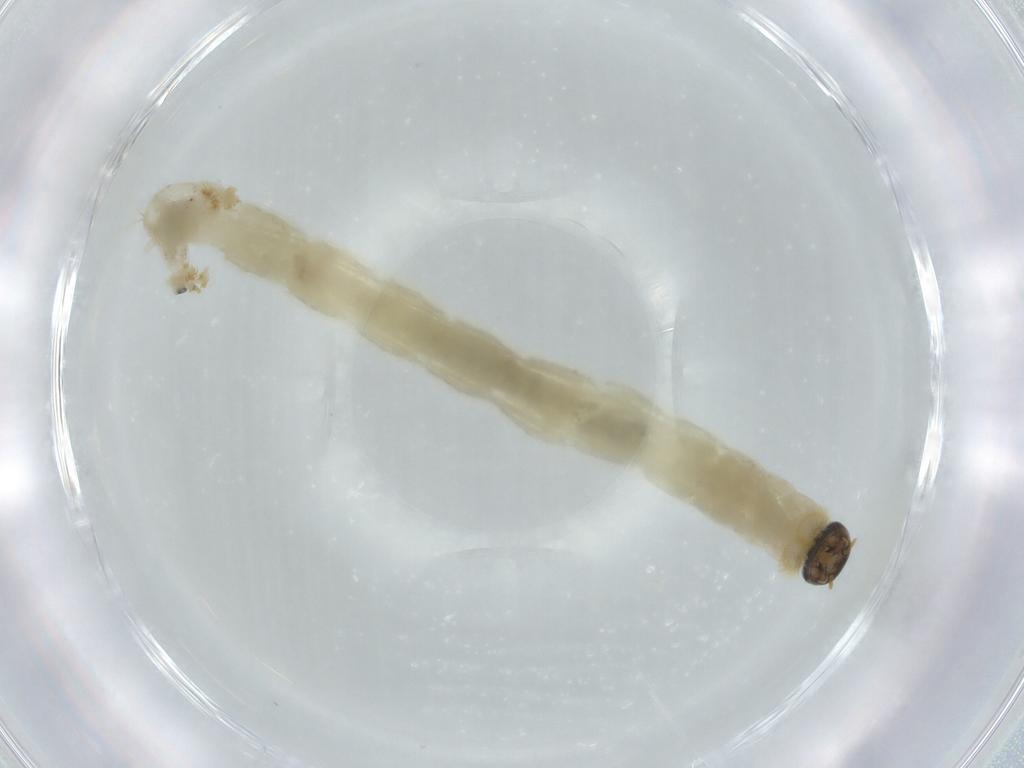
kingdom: Animalia
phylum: Arthropoda
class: Insecta
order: Diptera
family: Chironomidae
